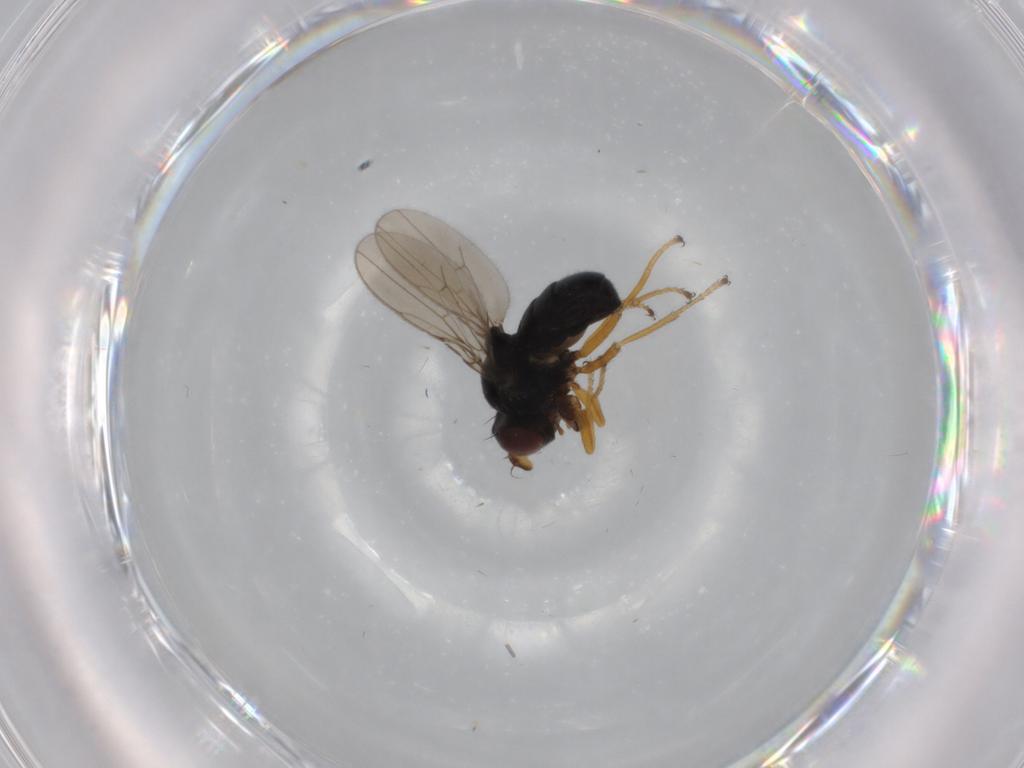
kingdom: Animalia
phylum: Arthropoda
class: Insecta
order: Diptera
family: Ephydridae
